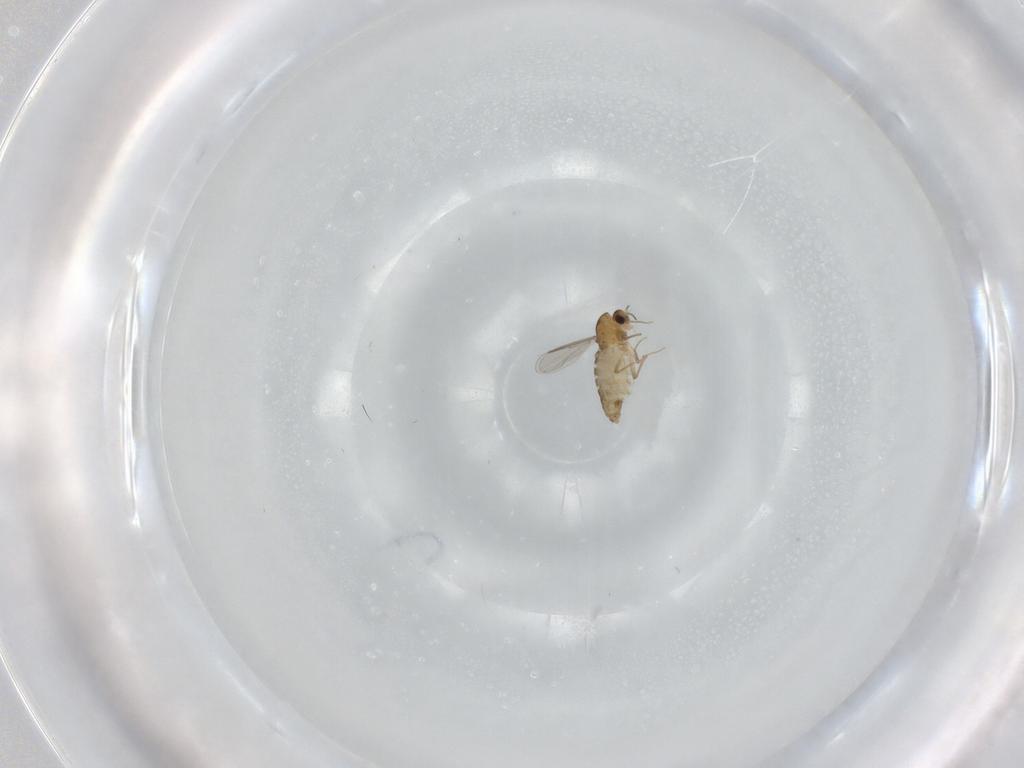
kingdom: Animalia
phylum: Arthropoda
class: Insecta
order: Diptera
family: Chironomidae
